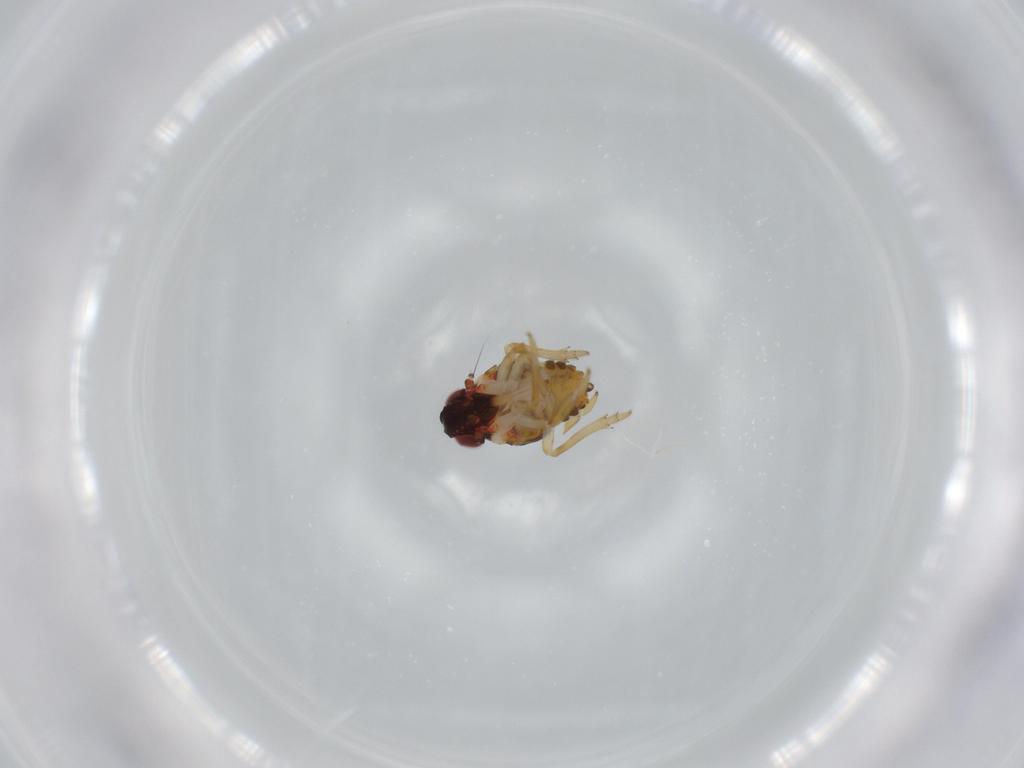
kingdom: Animalia
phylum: Arthropoda
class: Insecta
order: Hemiptera
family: Issidae
